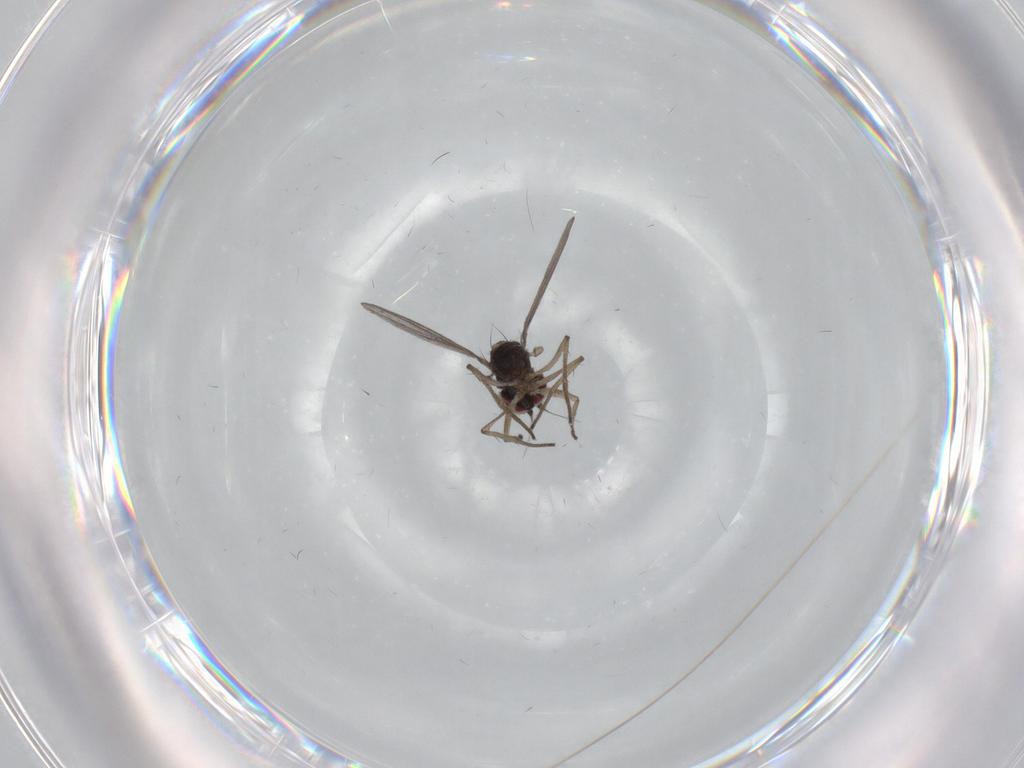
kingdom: Animalia
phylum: Arthropoda
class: Insecta
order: Diptera
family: Dolichopodidae
